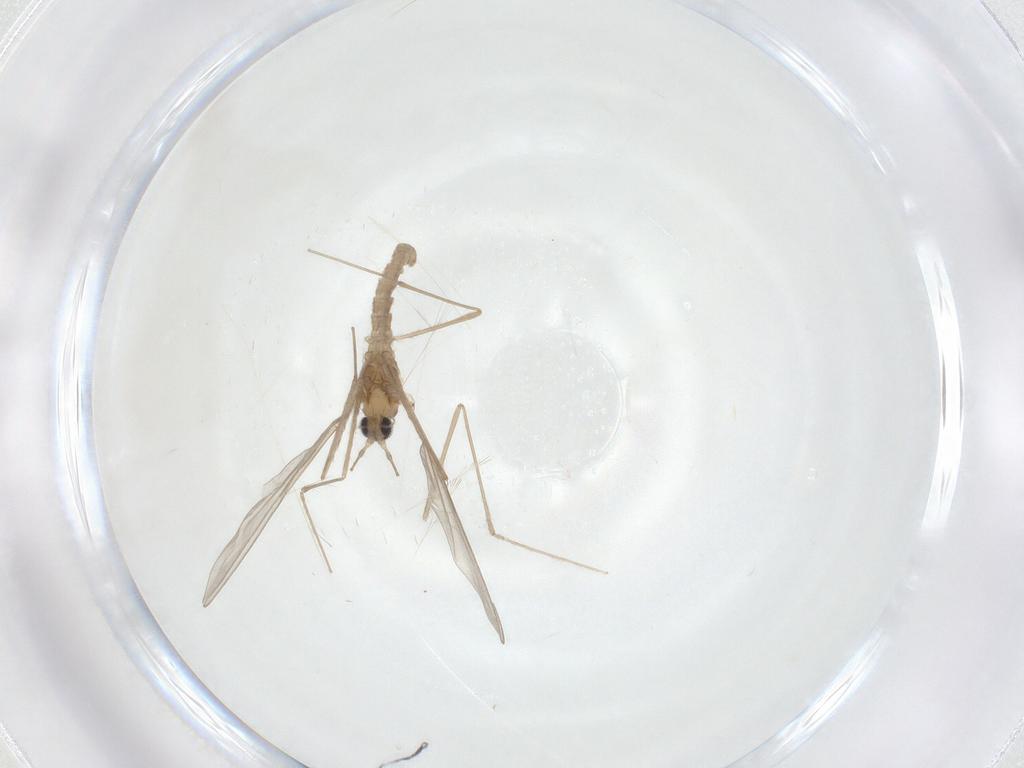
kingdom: Animalia
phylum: Arthropoda
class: Insecta
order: Diptera
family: Cecidomyiidae
